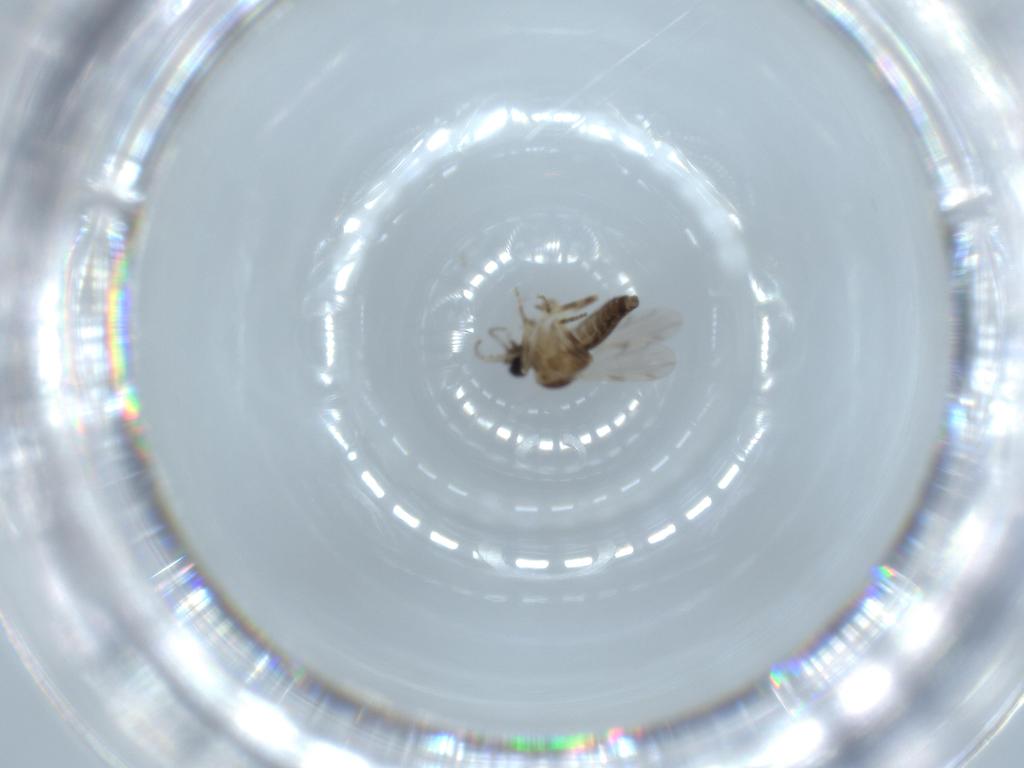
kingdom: Animalia
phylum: Arthropoda
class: Insecta
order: Diptera
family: Ceratopogonidae
